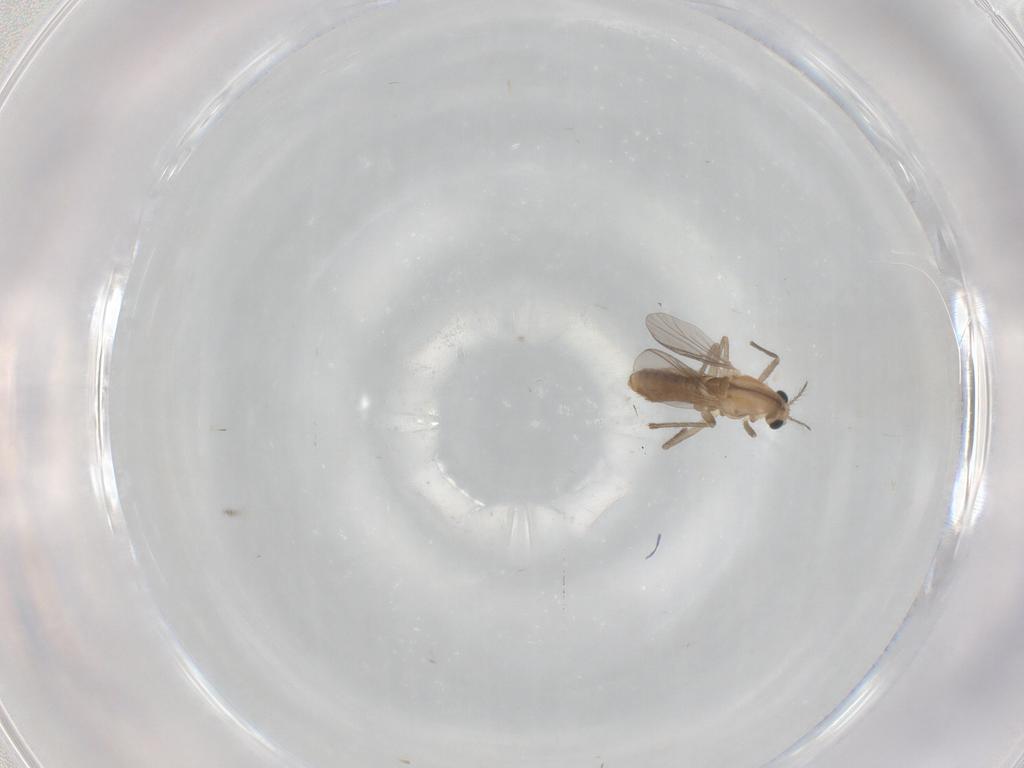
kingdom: Animalia
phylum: Arthropoda
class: Insecta
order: Diptera
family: Chironomidae
